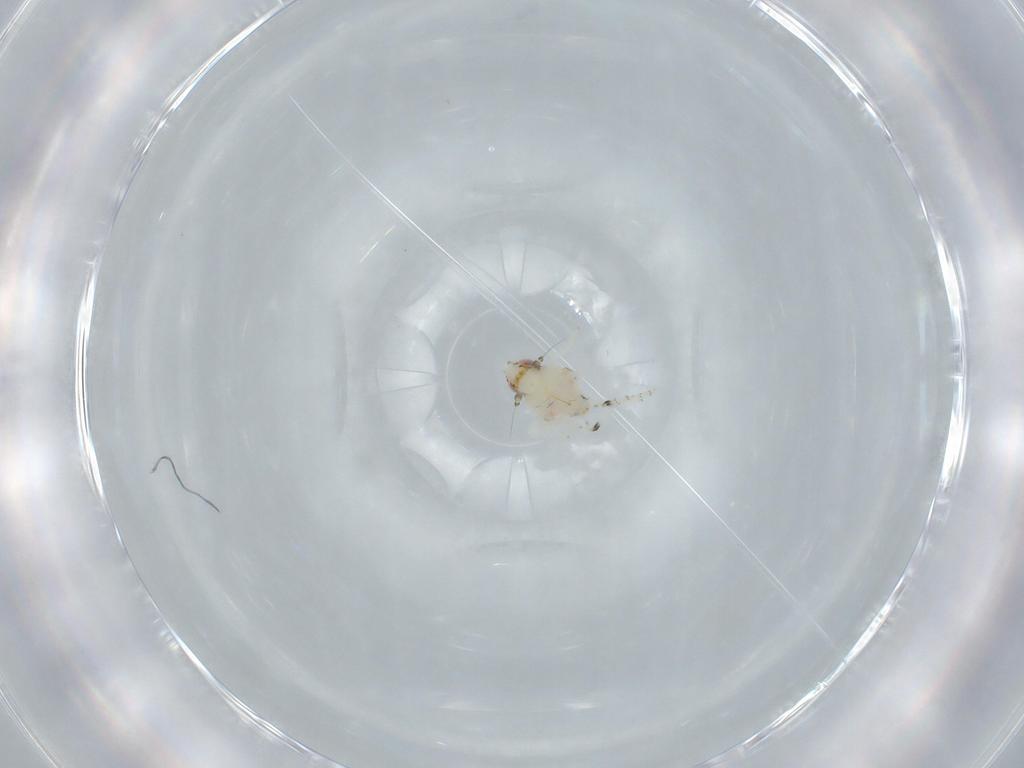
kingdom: Animalia
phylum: Arthropoda
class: Insecta
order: Hemiptera
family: Nogodinidae
